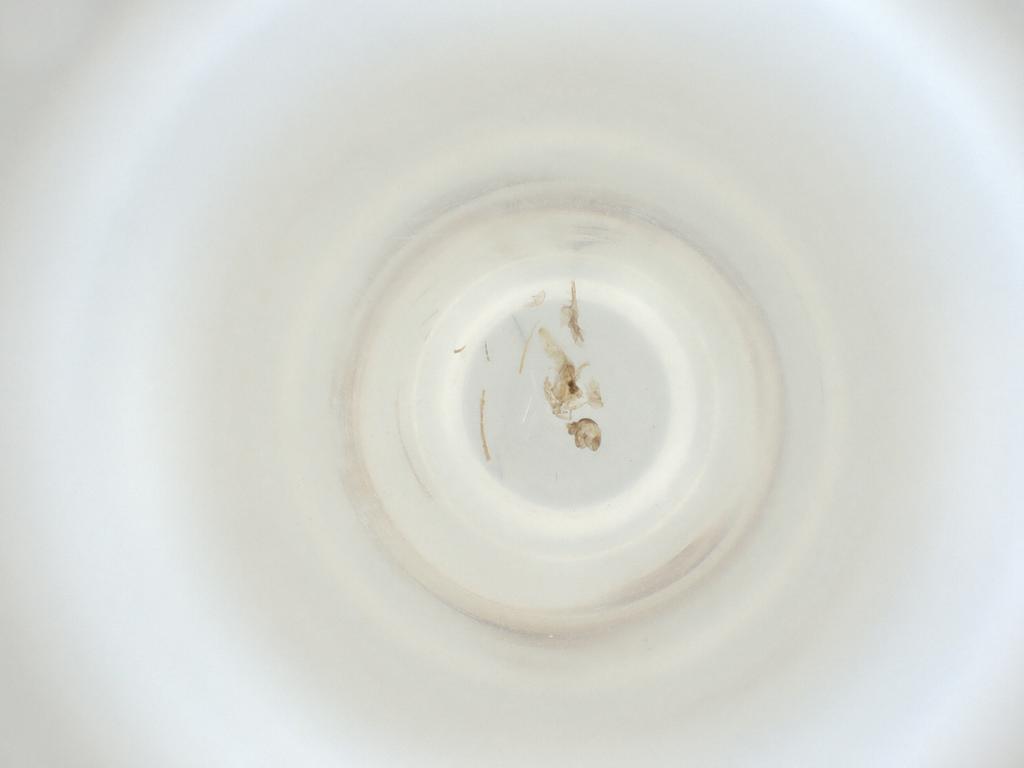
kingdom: Animalia
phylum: Arthropoda
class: Insecta
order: Diptera
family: Cecidomyiidae
